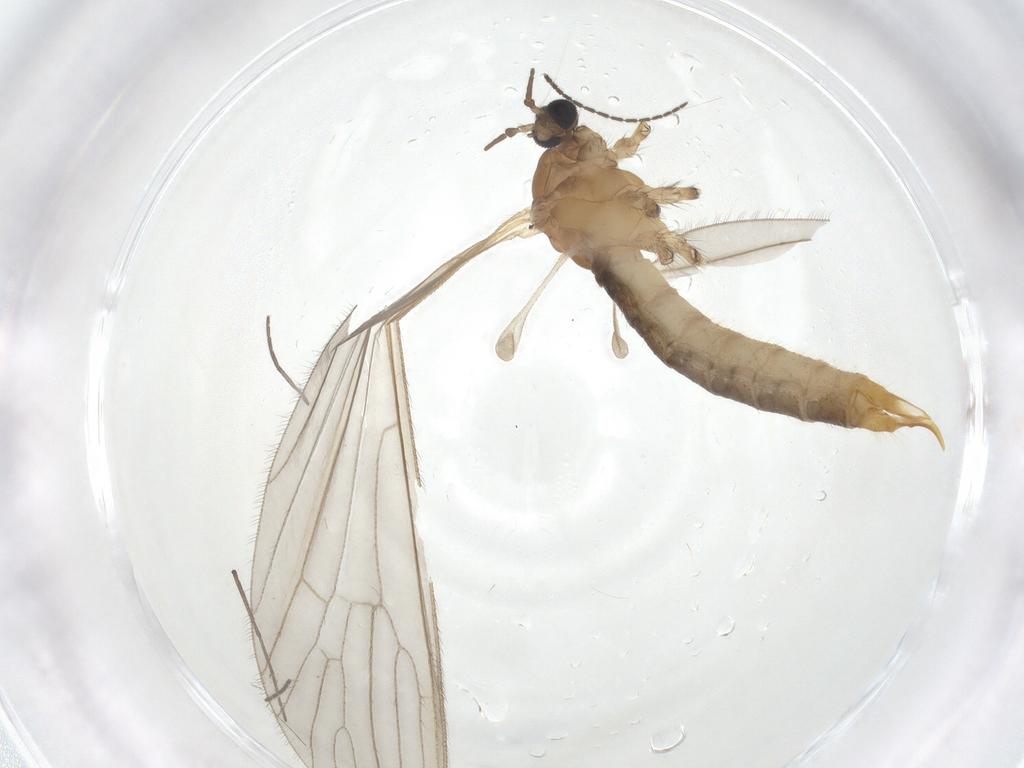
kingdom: Animalia
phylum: Arthropoda
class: Insecta
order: Diptera
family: Limoniidae
